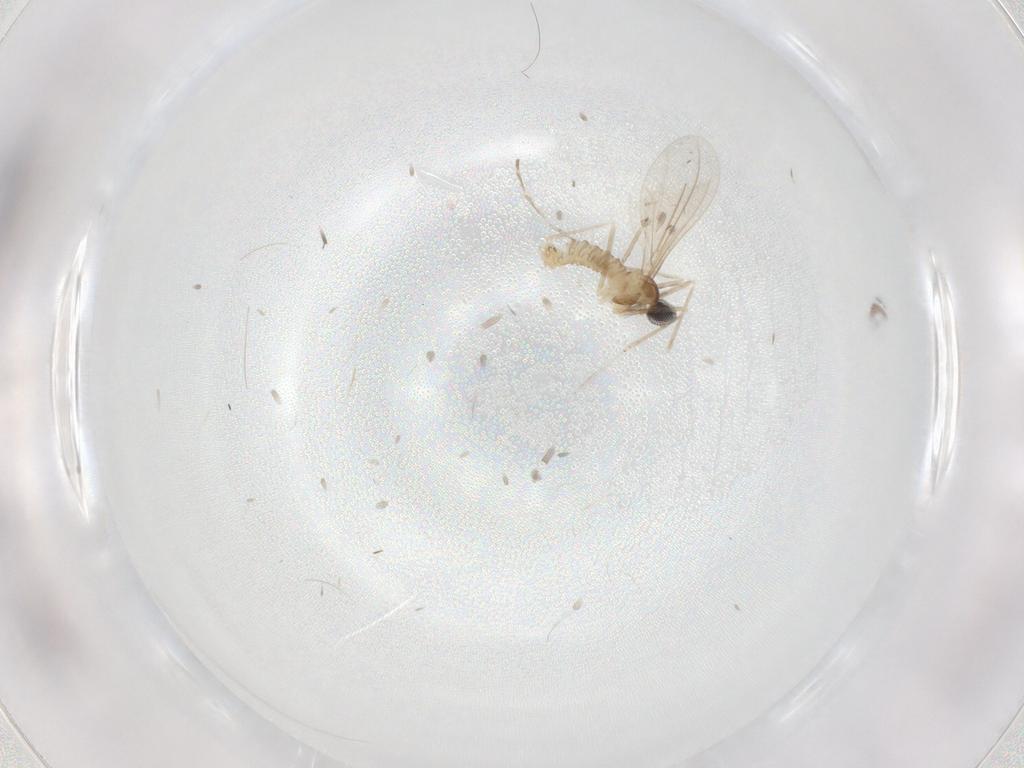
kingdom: Animalia
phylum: Arthropoda
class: Insecta
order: Diptera
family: Cecidomyiidae
